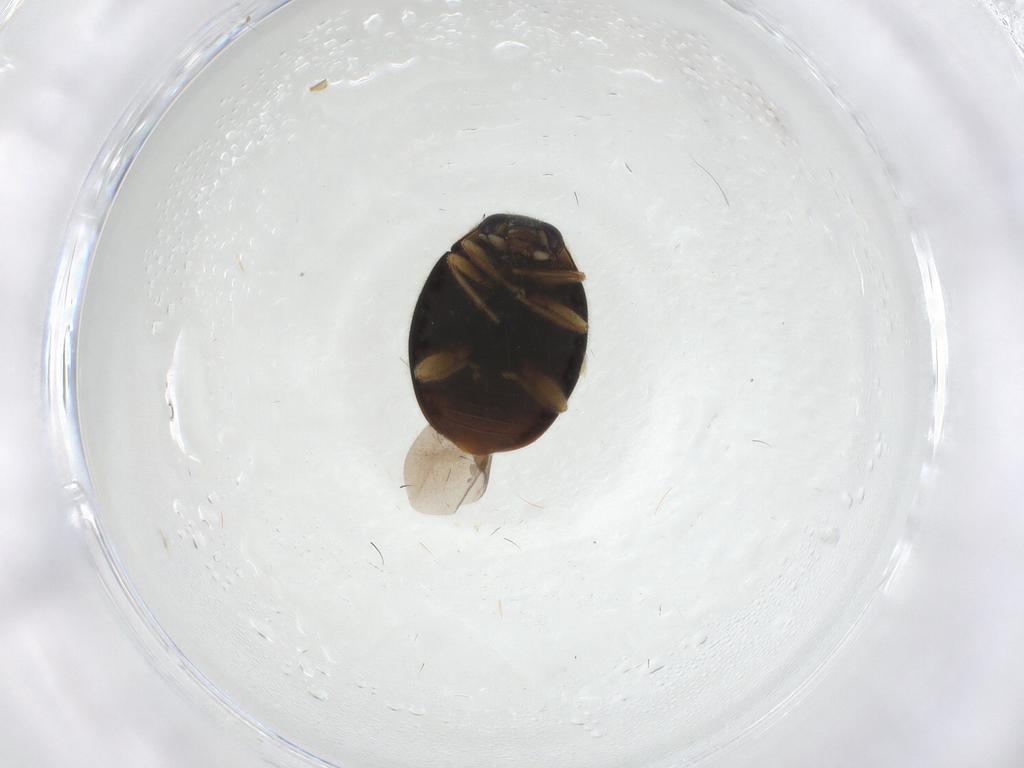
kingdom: Animalia
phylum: Arthropoda
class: Insecta
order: Coleoptera
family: Coccinellidae
